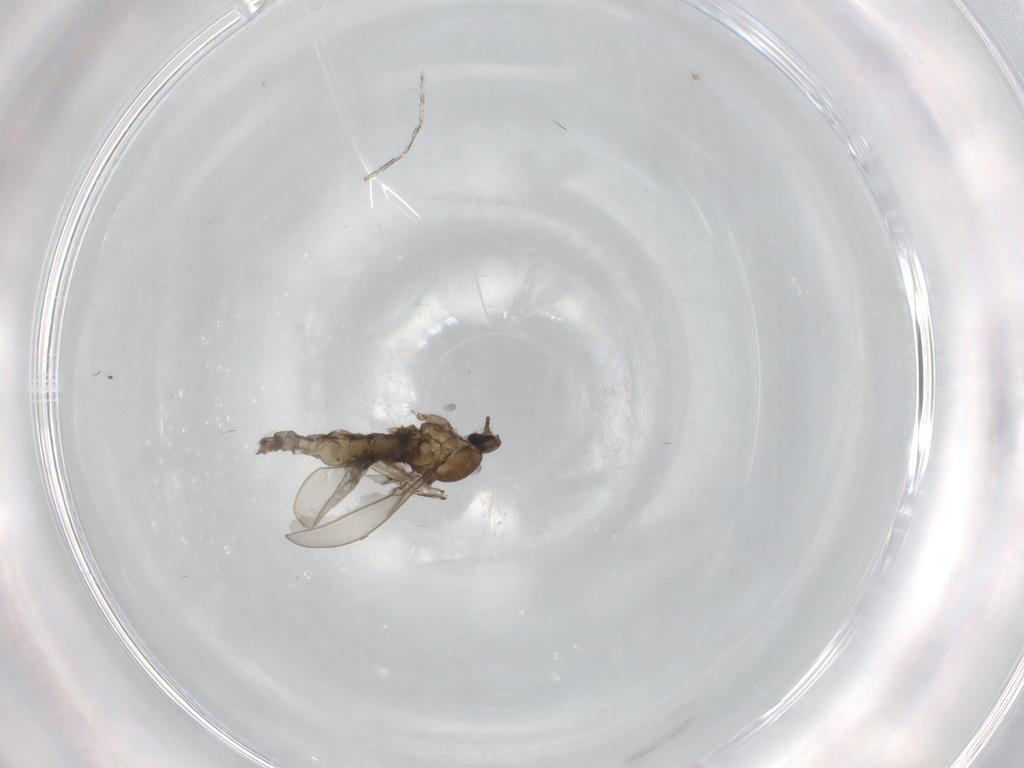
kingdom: Animalia
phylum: Arthropoda
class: Insecta
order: Diptera
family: Cecidomyiidae
